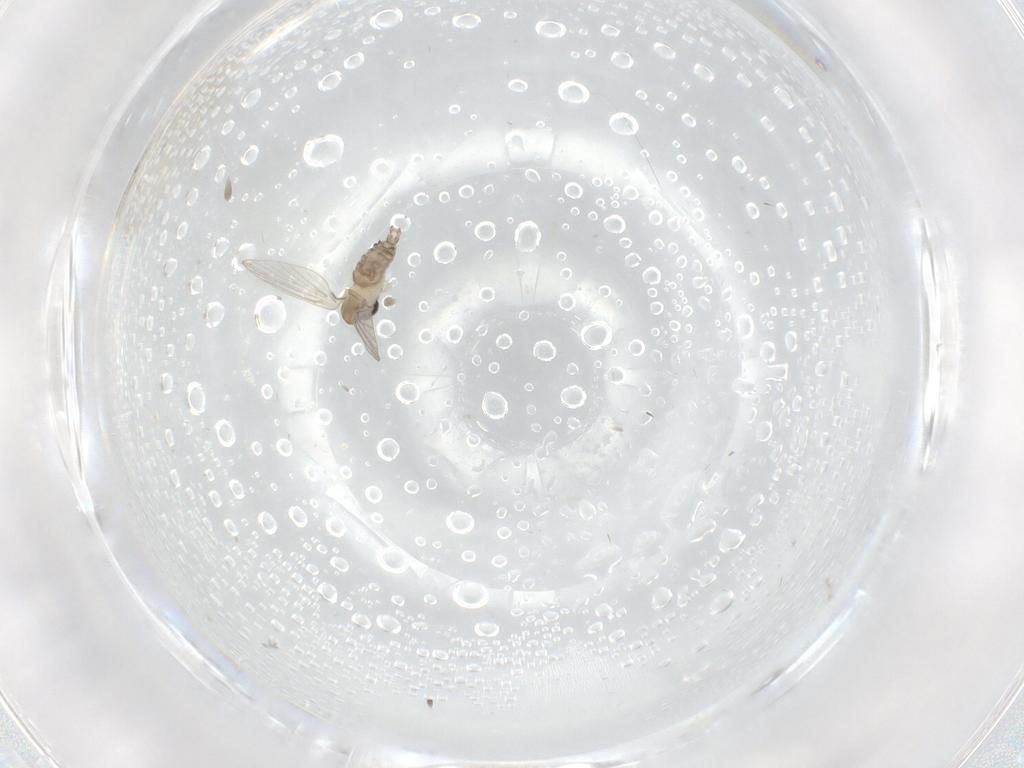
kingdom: Animalia
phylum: Arthropoda
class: Insecta
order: Diptera
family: Cecidomyiidae
